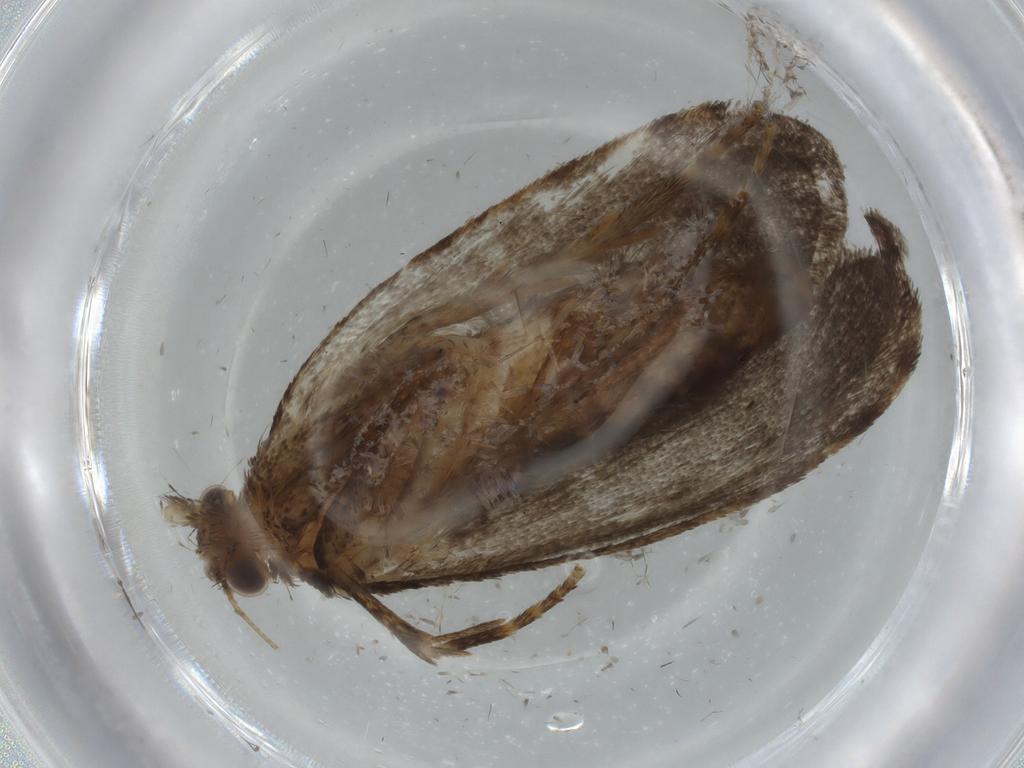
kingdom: Animalia
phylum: Arthropoda
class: Insecta
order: Lepidoptera
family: Tineidae
